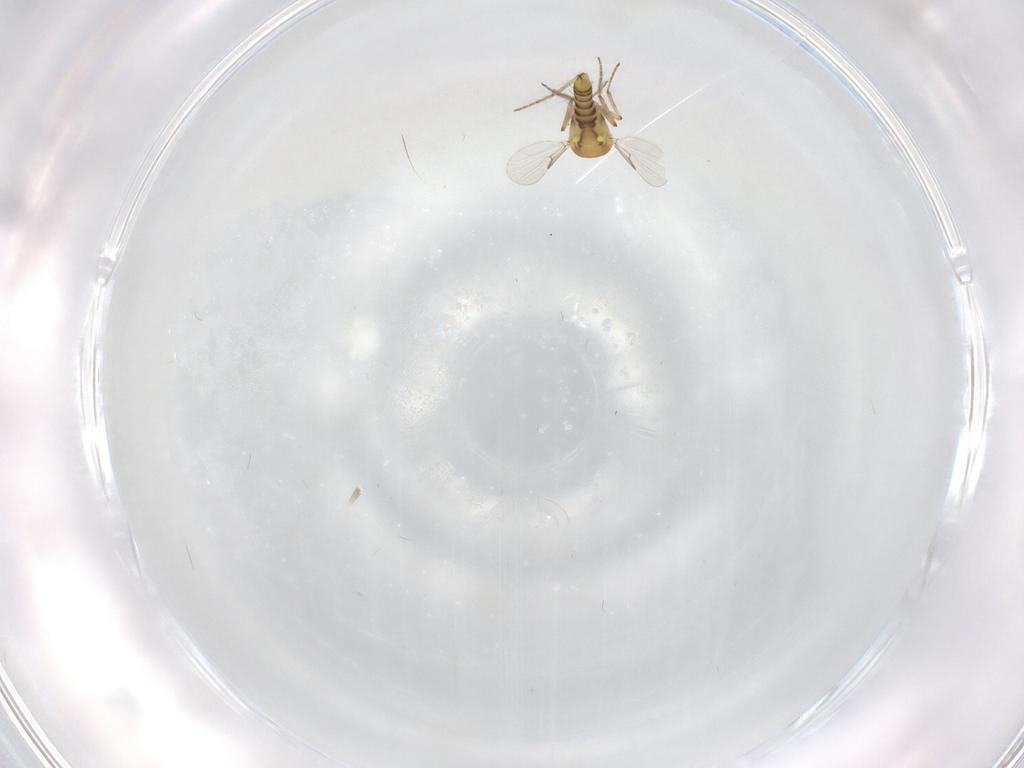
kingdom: Animalia
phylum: Arthropoda
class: Insecta
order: Diptera
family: Ceratopogonidae
